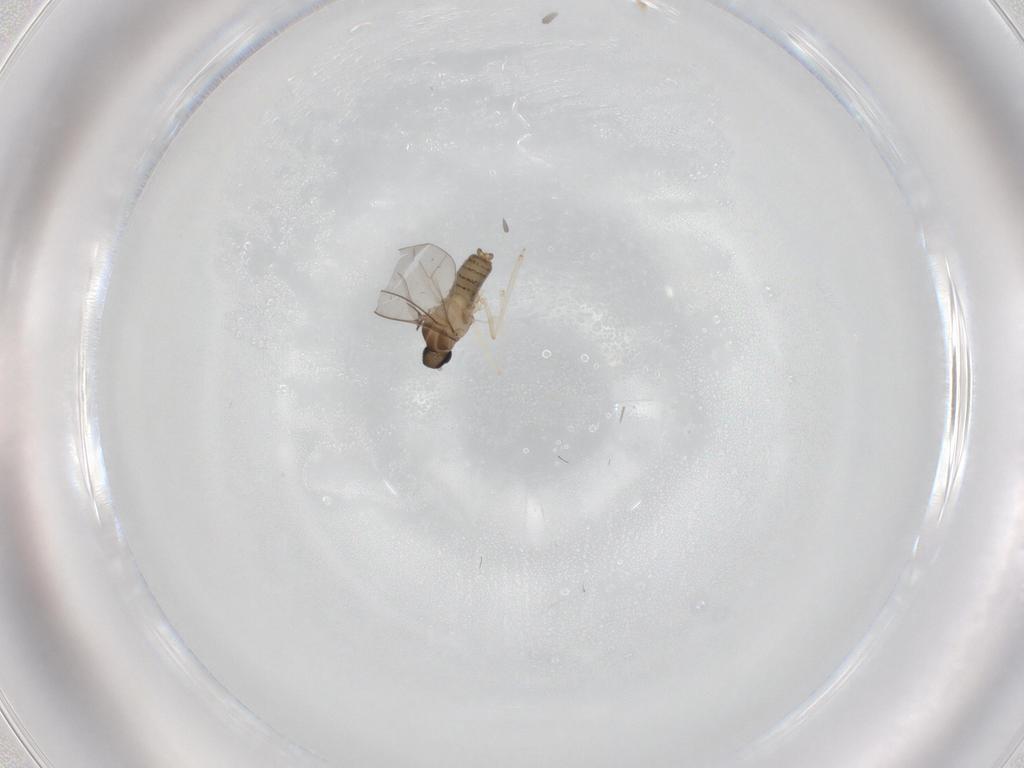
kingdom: Animalia
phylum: Arthropoda
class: Insecta
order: Diptera
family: Cecidomyiidae
